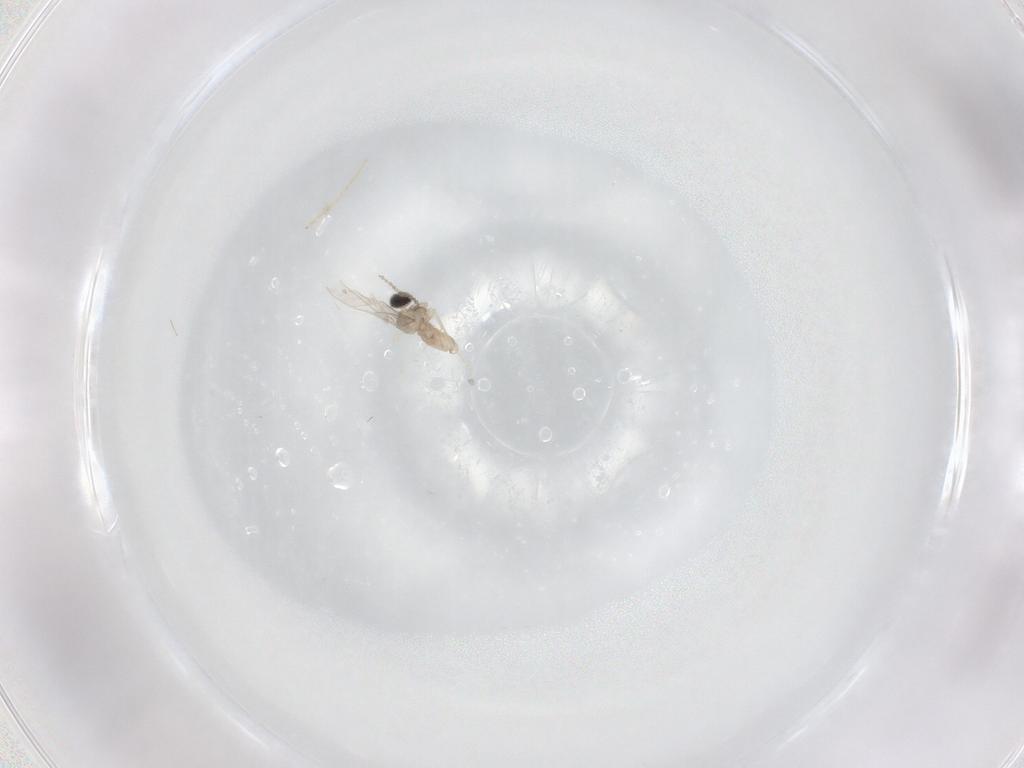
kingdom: Animalia
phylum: Arthropoda
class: Insecta
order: Diptera
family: Chironomidae
